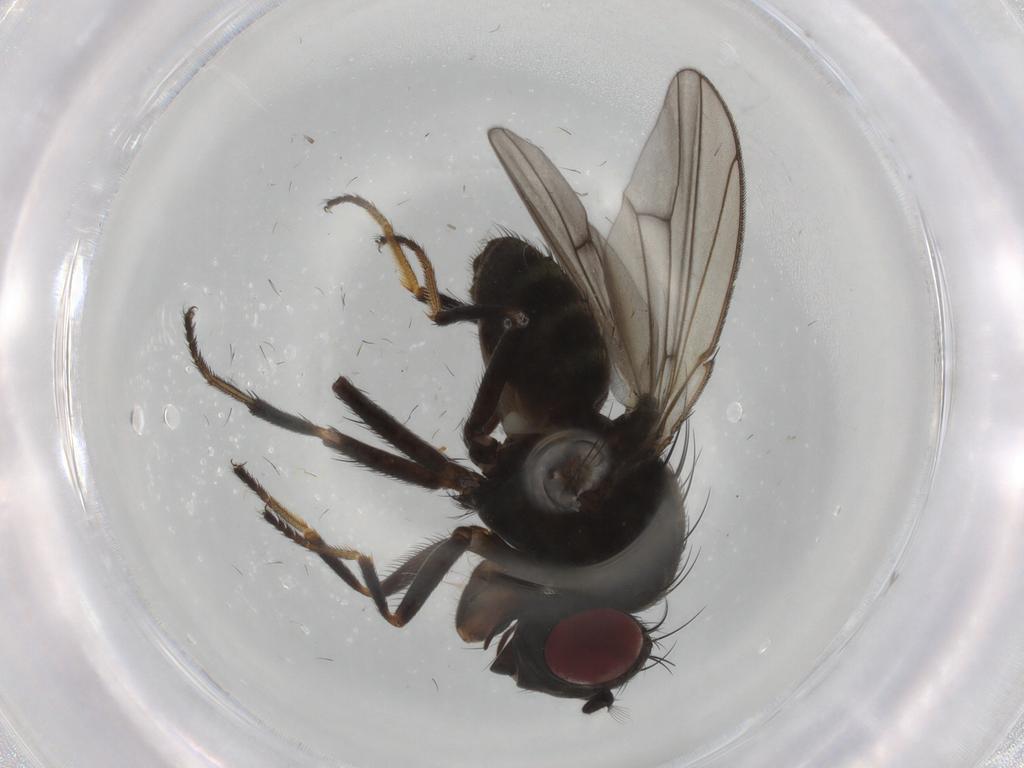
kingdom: Animalia
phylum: Arthropoda
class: Insecta
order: Diptera
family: Ephydridae
